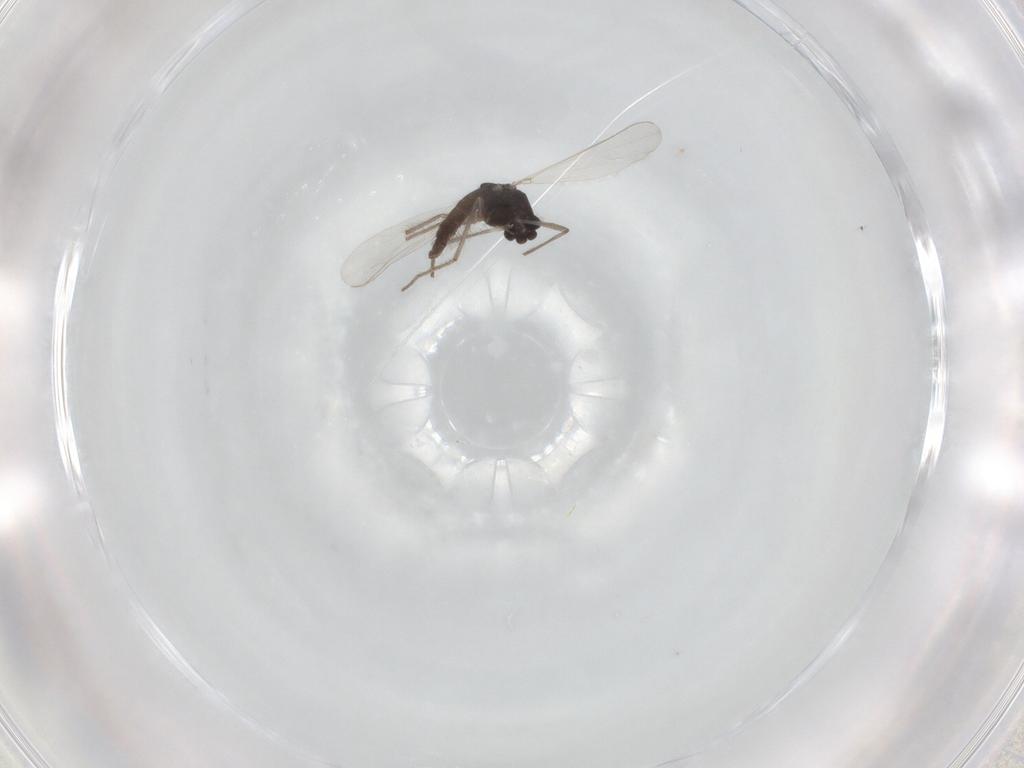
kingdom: Animalia
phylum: Arthropoda
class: Insecta
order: Diptera
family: Chironomidae
